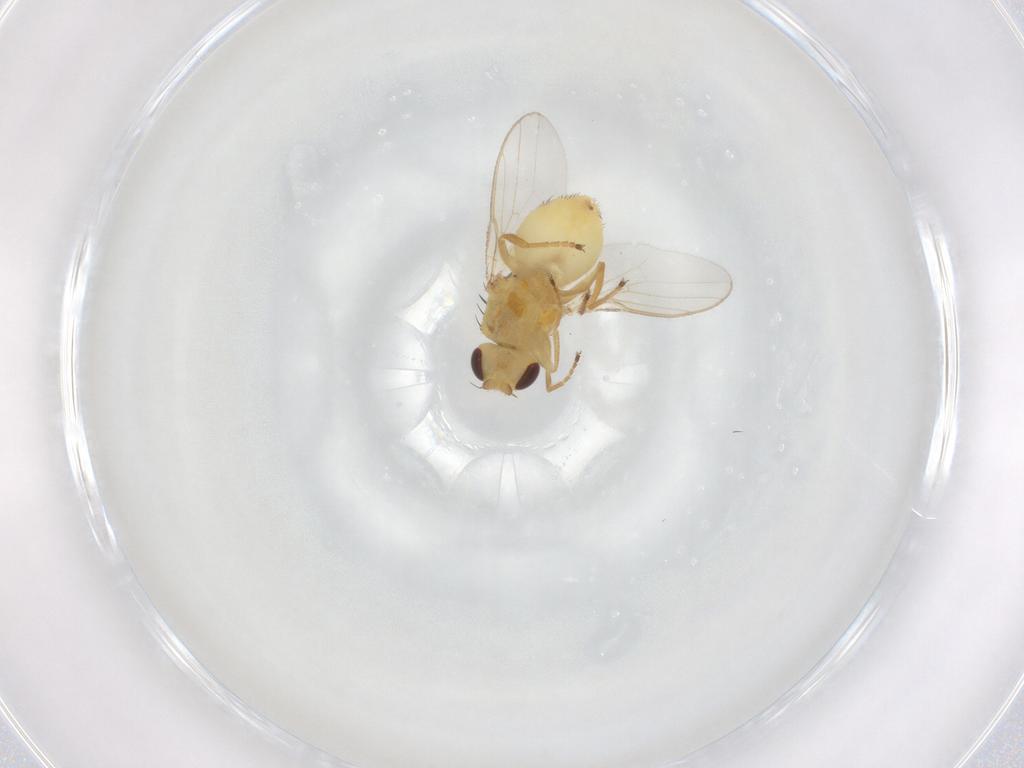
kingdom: Animalia
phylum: Arthropoda
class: Insecta
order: Diptera
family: Chloropidae
